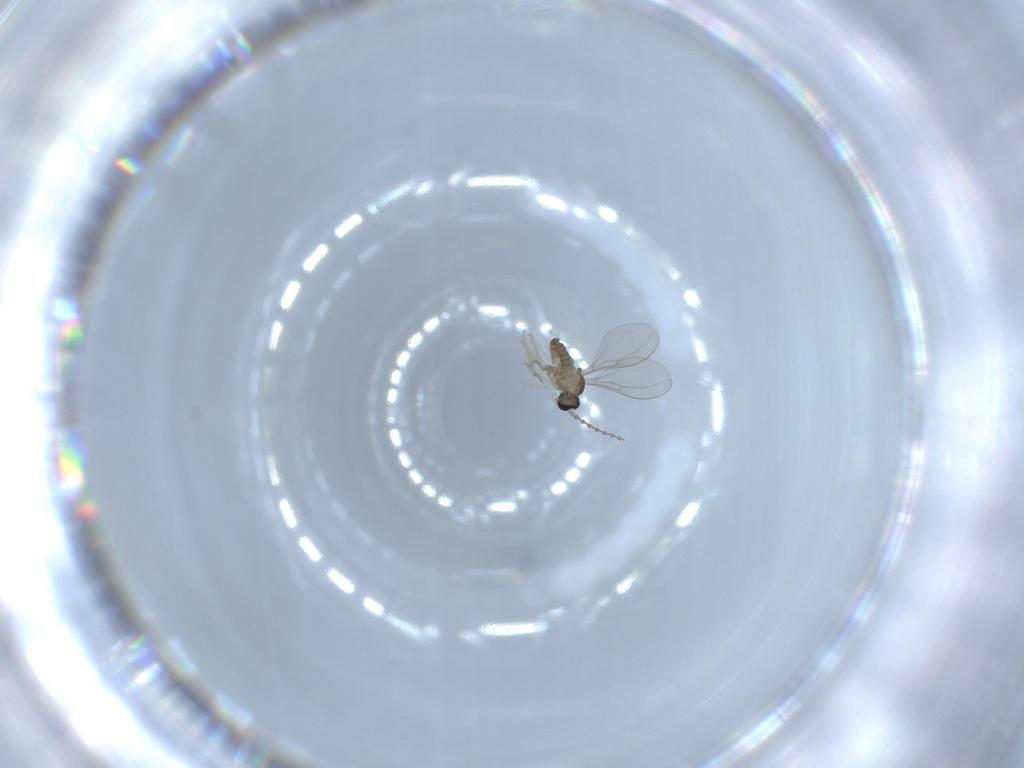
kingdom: Animalia
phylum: Arthropoda
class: Insecta
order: Diptera
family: Cecidomyiidae
